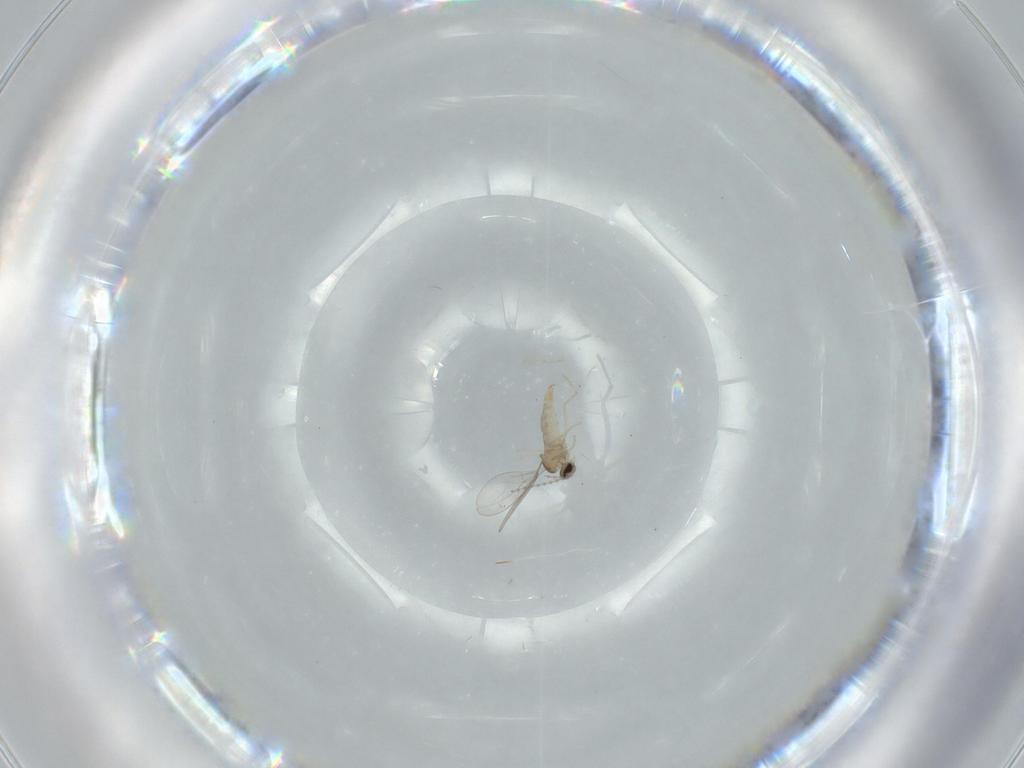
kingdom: Animalia
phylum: Arthropoda
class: Insecta
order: Diptera
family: Cecidomyiidae
